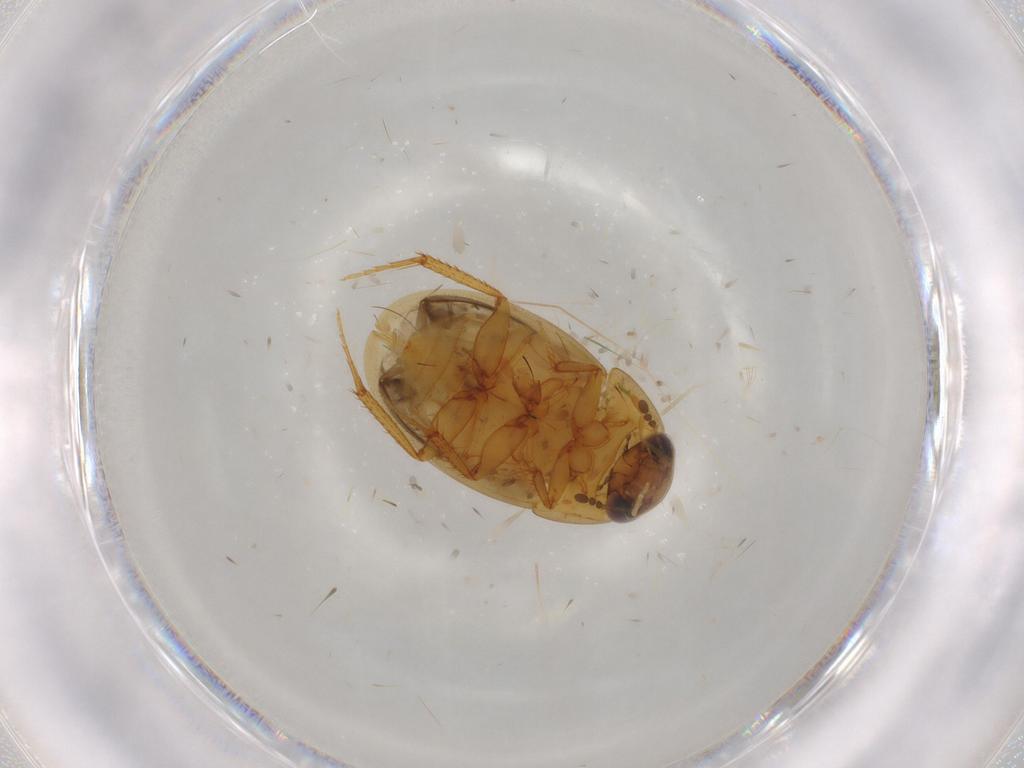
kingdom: Animalia
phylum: Arthropoda
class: Insecta
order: Coleoptera
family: Hydrophilidae
